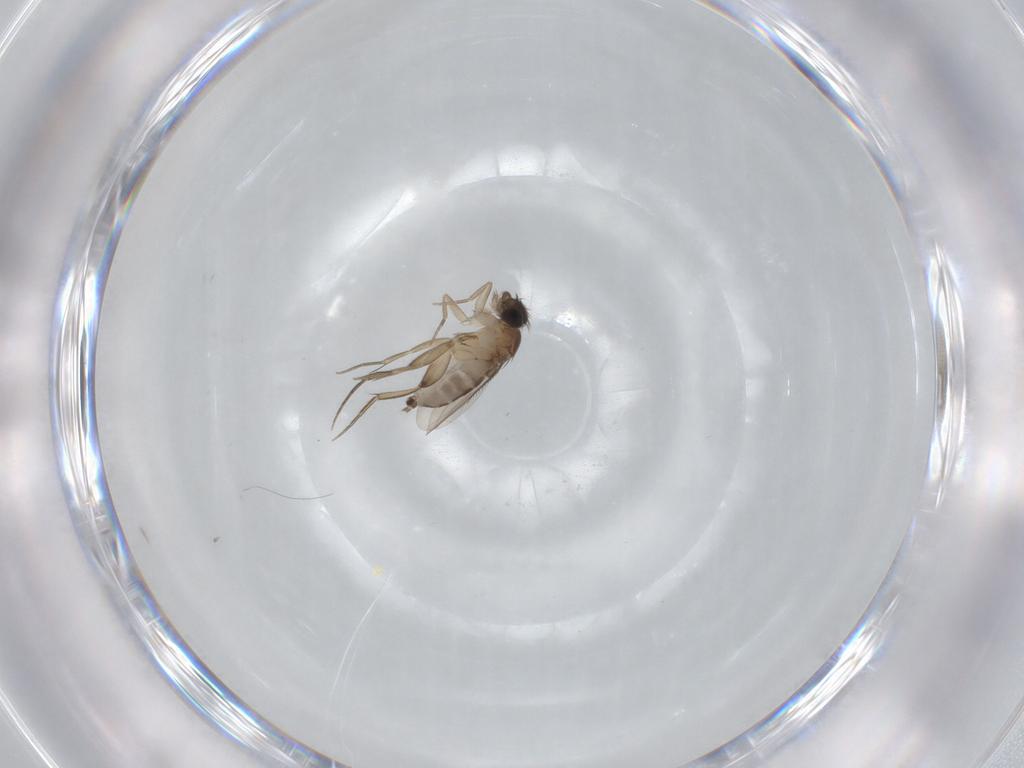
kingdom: Animalia
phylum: Arthropoda
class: Insecta
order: Diptera
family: Phoridae
